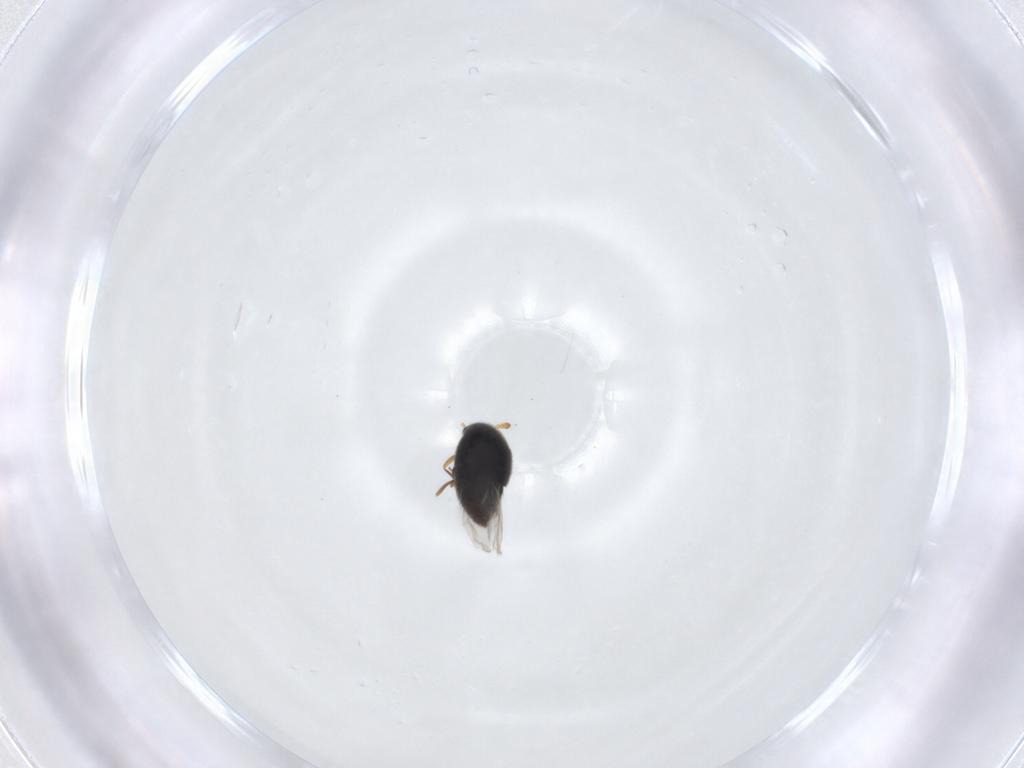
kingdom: Animalia
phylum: Arthropoda
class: Insecta
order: Coleoptera
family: Staphylinidae
